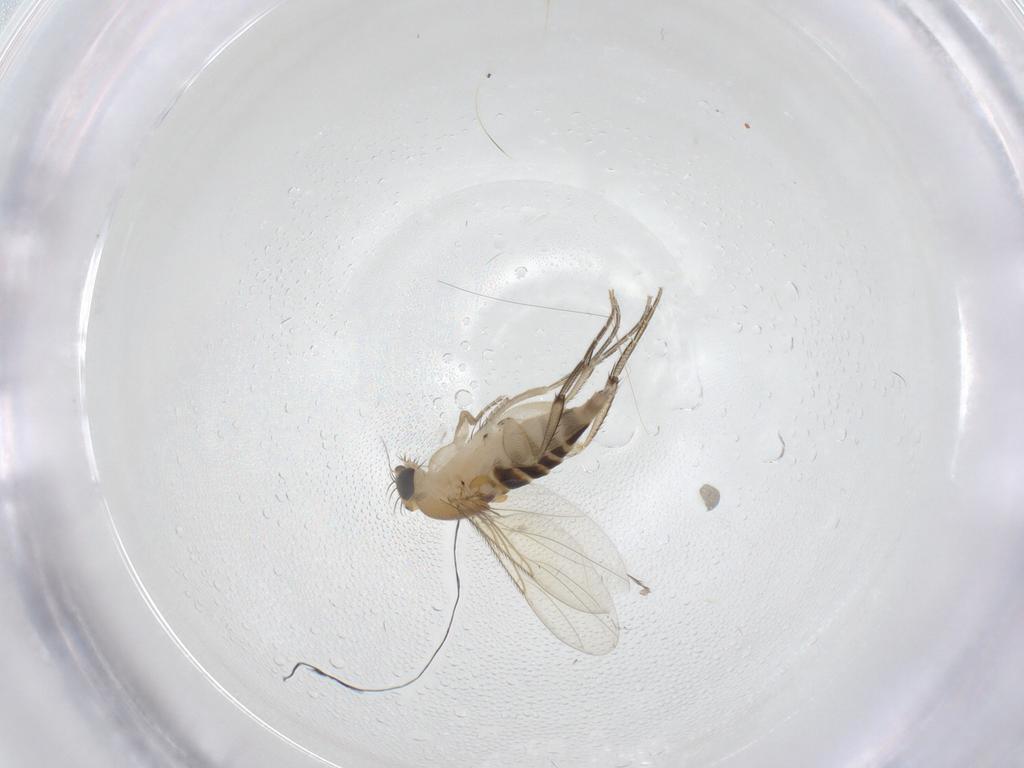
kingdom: Animalia
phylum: Arthropoda
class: Insecta
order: Diptera
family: Phoridae
